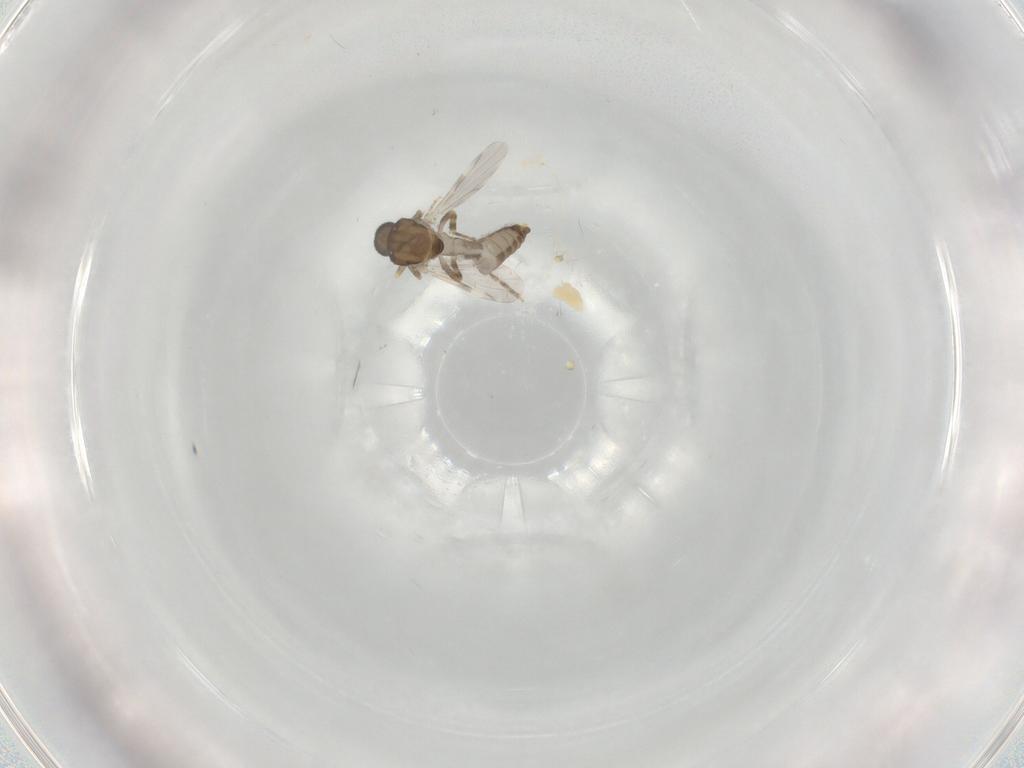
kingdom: Animalia
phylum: Arthropoda
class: Insecta
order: Diptera
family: Ceratopogonidae
